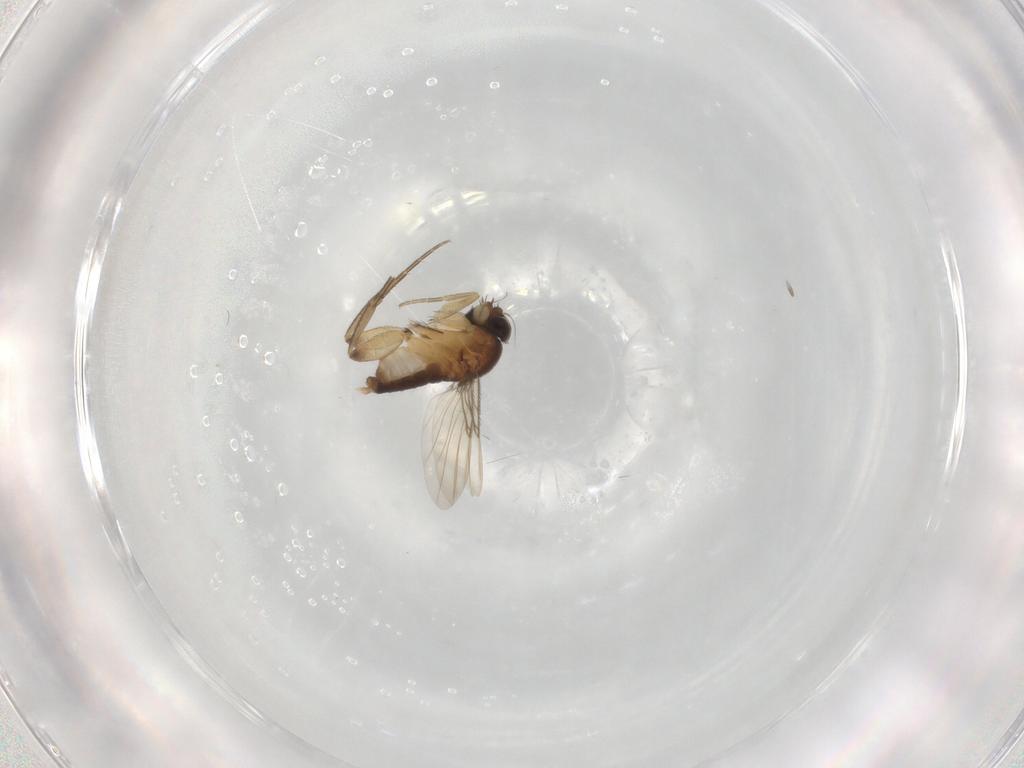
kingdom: Animalia
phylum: Arthropoda
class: Insecta
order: Diptera
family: Phoridae
